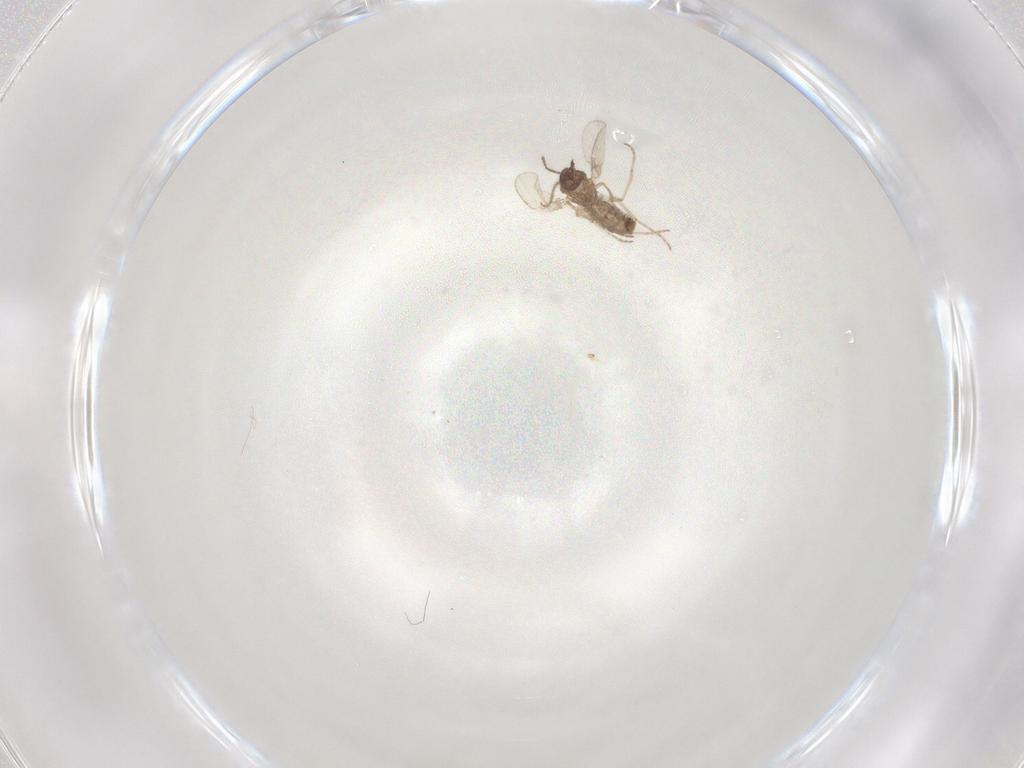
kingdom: Animalia
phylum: Arthropoda
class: Insecta
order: Diptera
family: Ceratopogonidae
